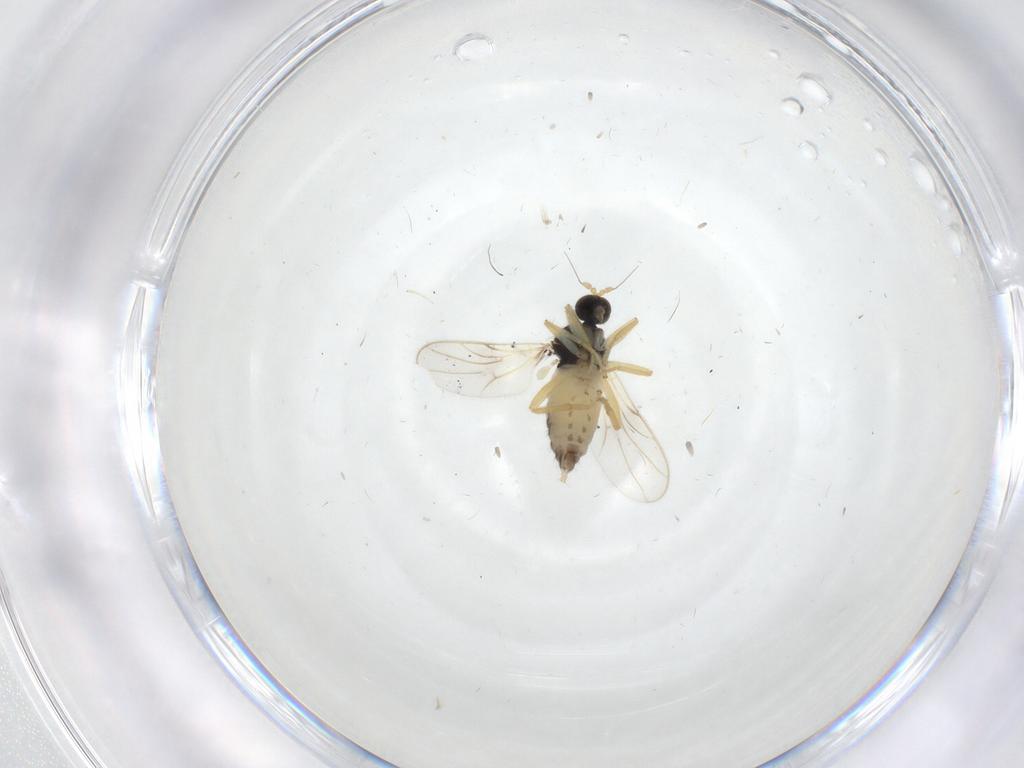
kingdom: Animalia
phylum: Arthropoda
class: Insecta
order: Diptera
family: Hybotidae
